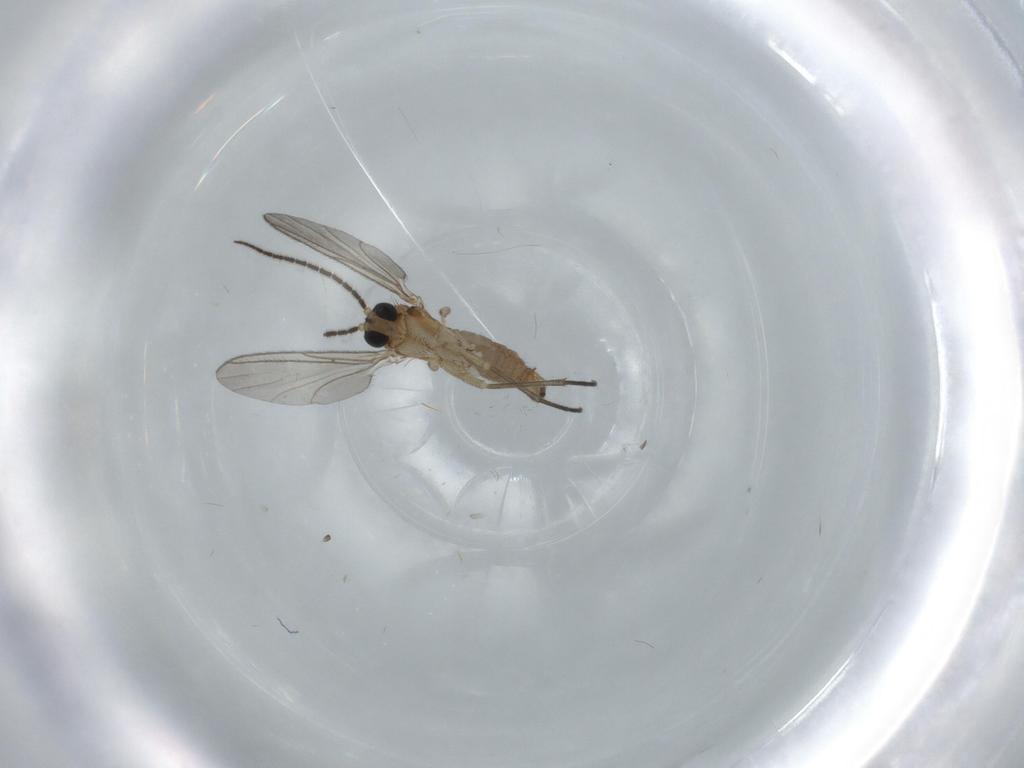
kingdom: Animalia
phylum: Arthropoda
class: Insecta
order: Diptera
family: Sciaridae
